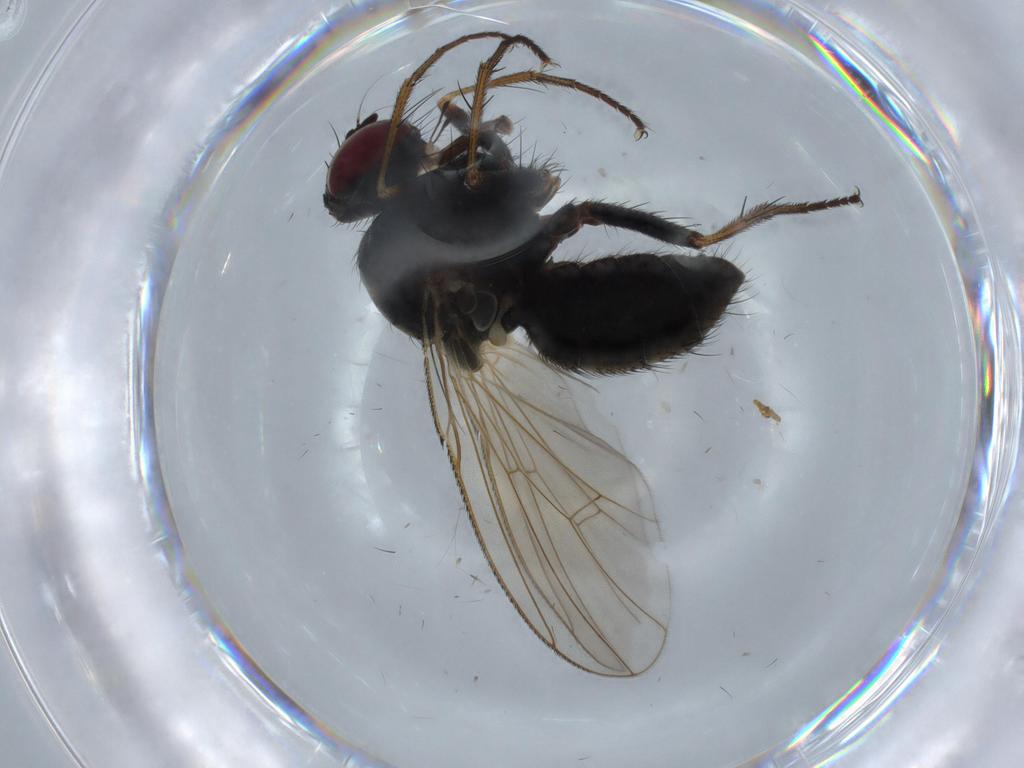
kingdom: Animalia
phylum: Arthropoda
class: Insecta
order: Diptera
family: Muscidae
